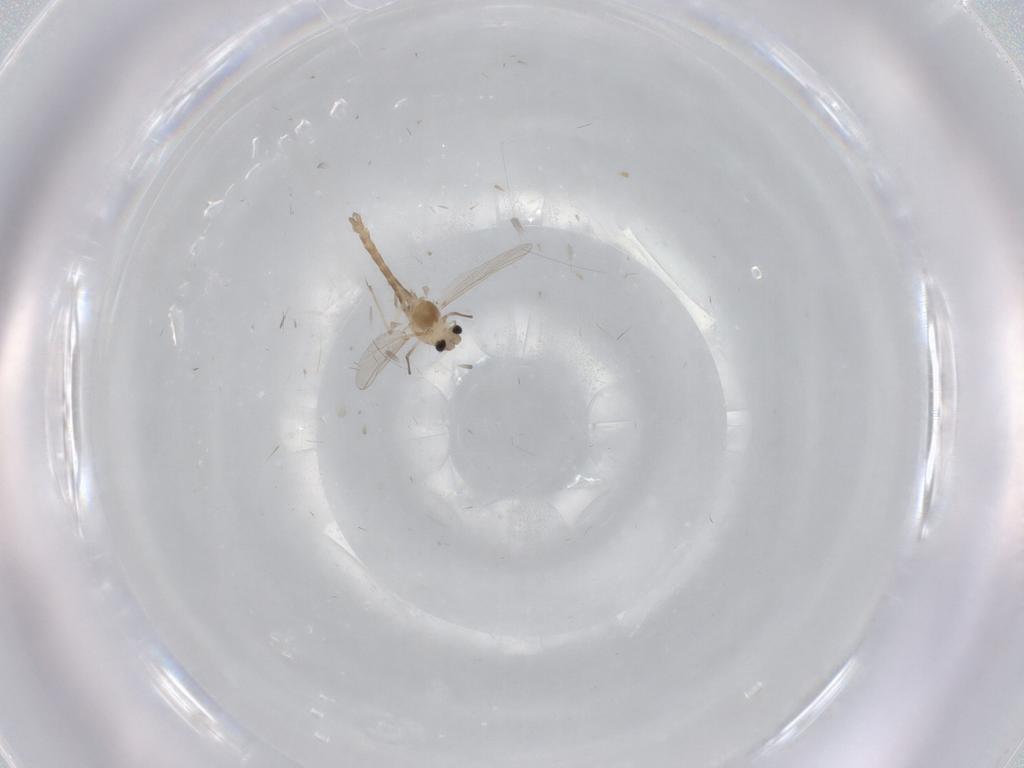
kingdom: Animalia
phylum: Arthropoda
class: Insecta
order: Diptera
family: Chironomidae
